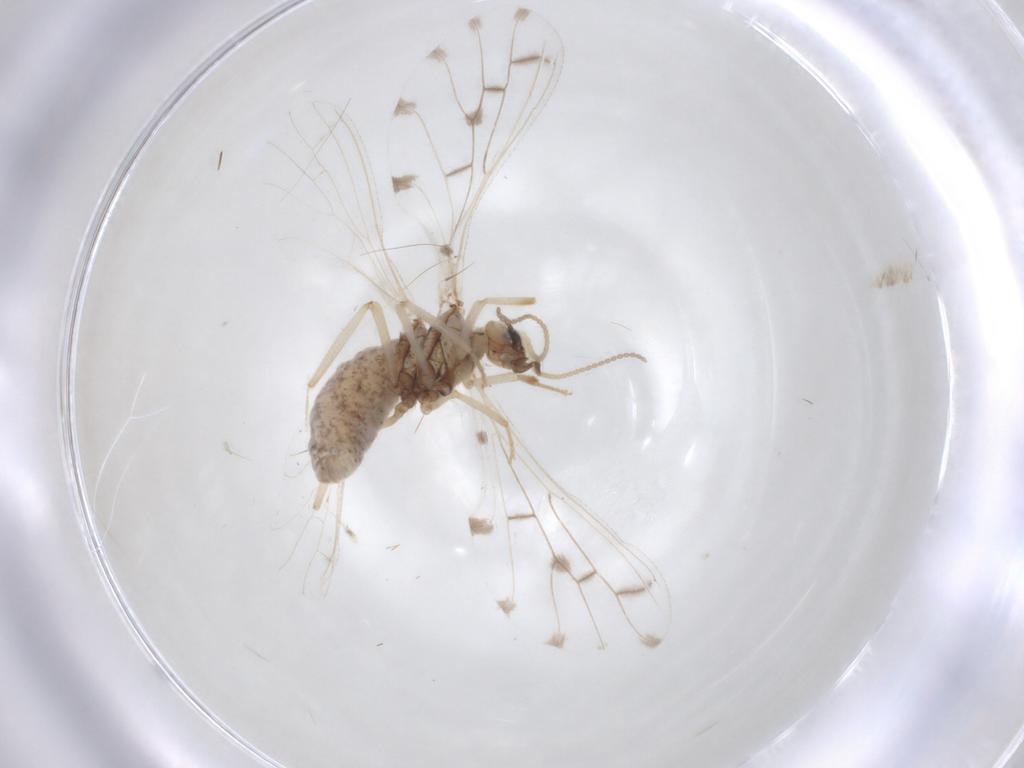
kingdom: Animalia
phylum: Arthropoda
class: Insecta
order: Neuroptera
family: Coniopterygidae
